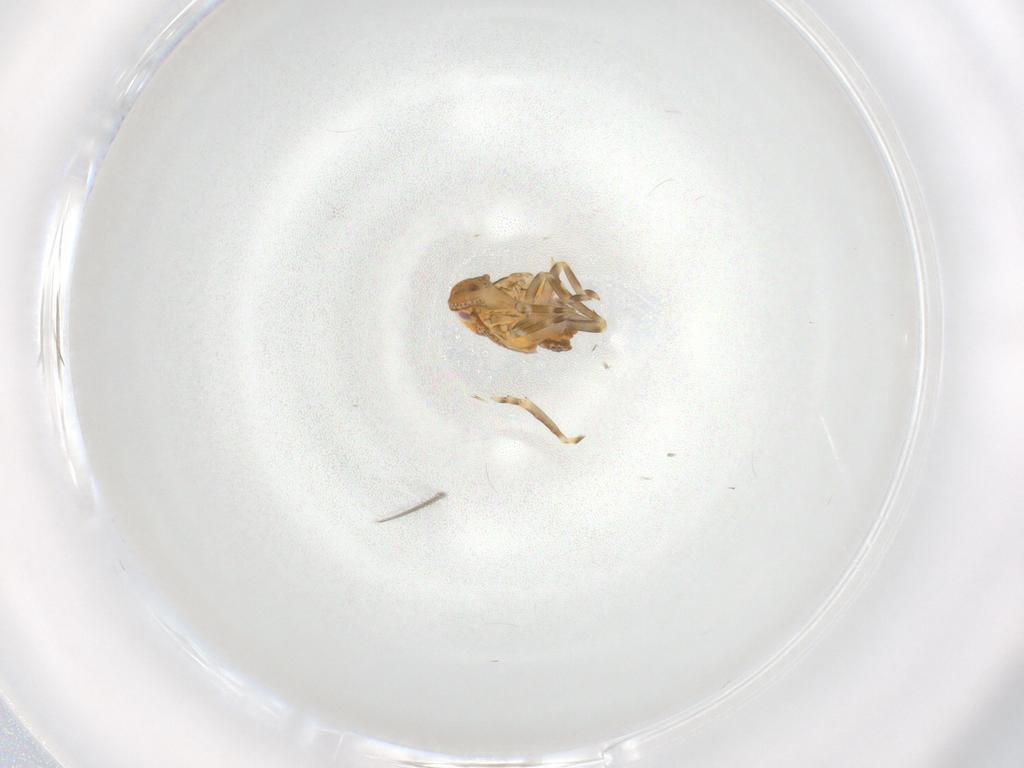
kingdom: Animalia
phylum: Arthropoda
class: Insecta
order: Hemiptera
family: Flatidae
